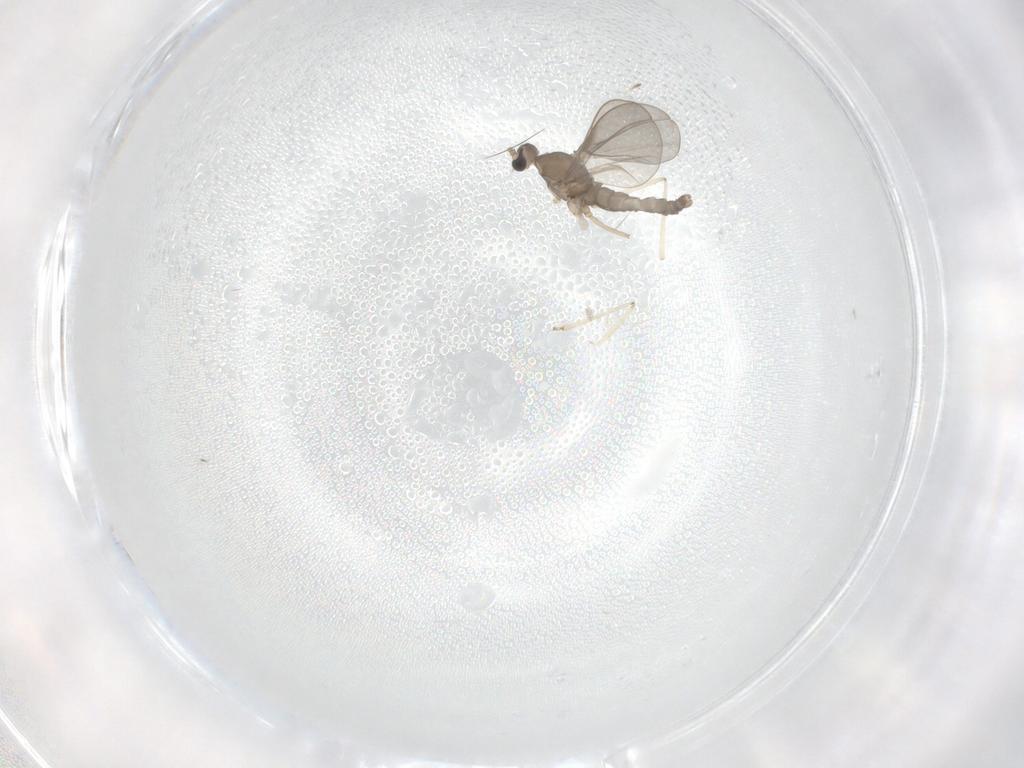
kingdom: Animalia
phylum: Arthropoda
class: Insecta
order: Diptera
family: Cecidomyiidae
